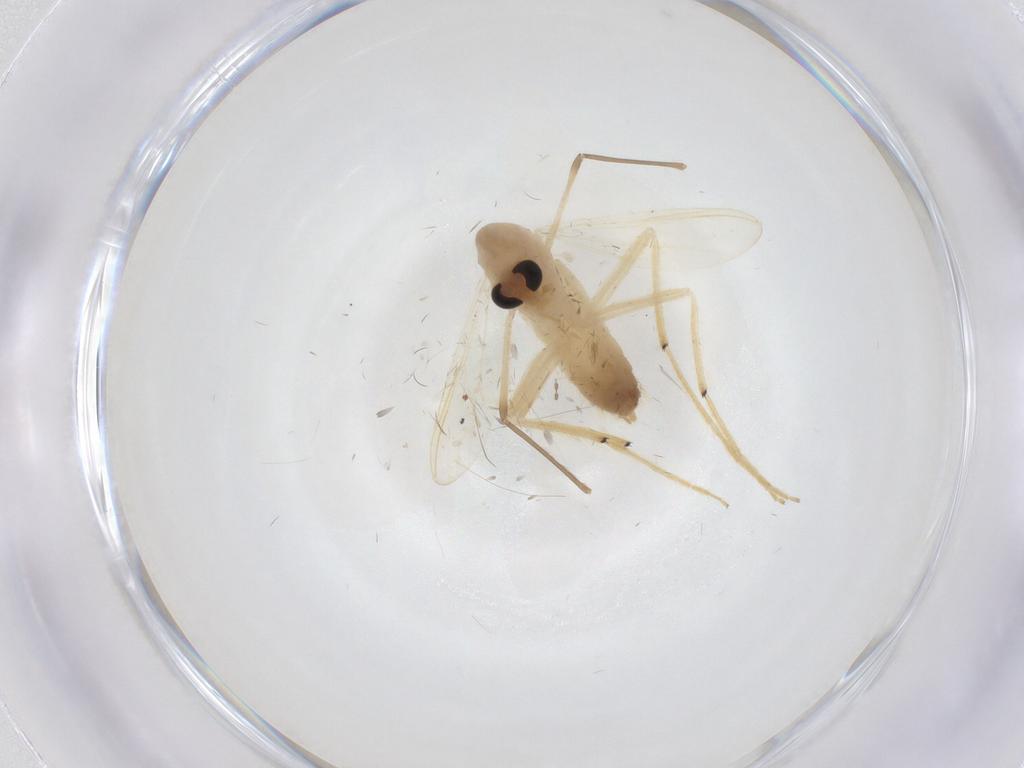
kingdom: Animalia
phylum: Arthropoda
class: Insecta
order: Diptera
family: Chironomidae
